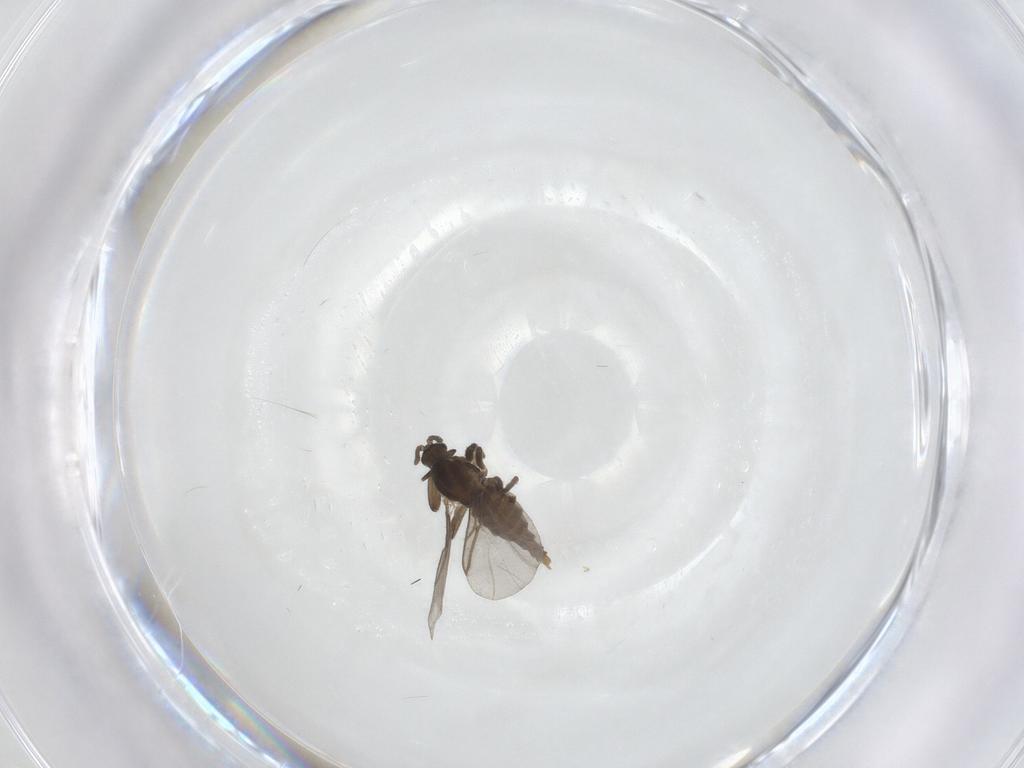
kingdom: Animalia
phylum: Arthropoda
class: Insecta
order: Diptera
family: Cecidomyiidae
